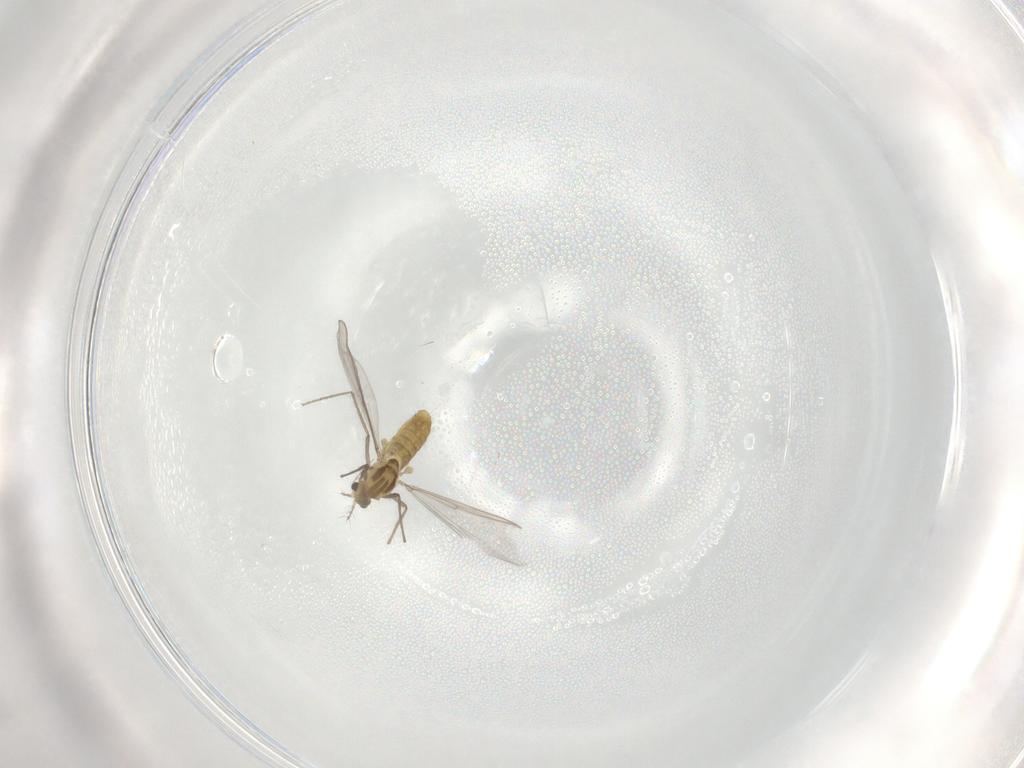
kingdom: Animalia
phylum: Arthropoda
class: Insecta
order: Diptera
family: Chironomidae
